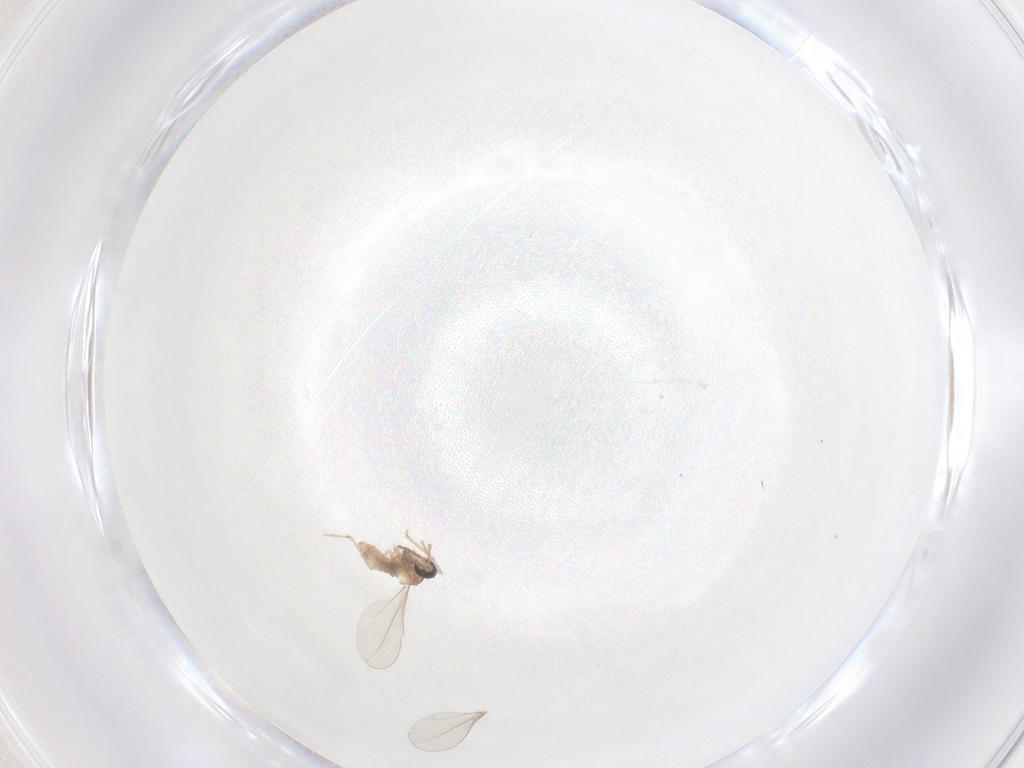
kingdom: Animalia
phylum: Arthropoda
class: Insecta
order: Diptera
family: Cecidomyiidae
